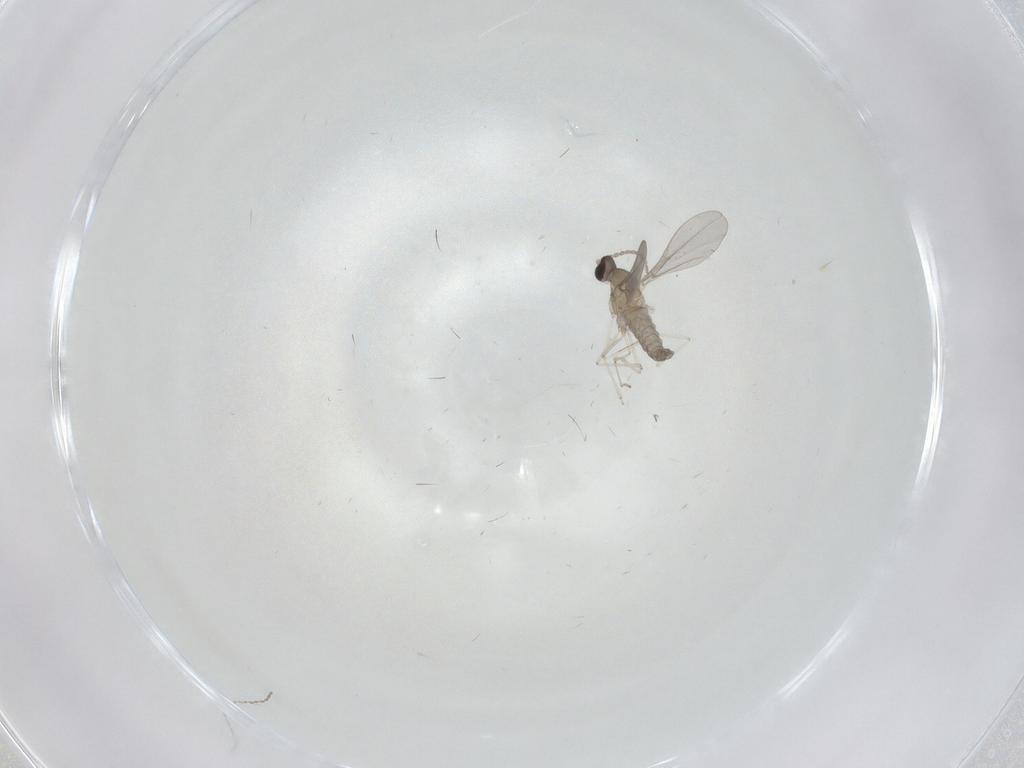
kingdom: Animalia
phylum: Arthropoda
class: Insecta
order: Diptera
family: Cecidomyiidae
